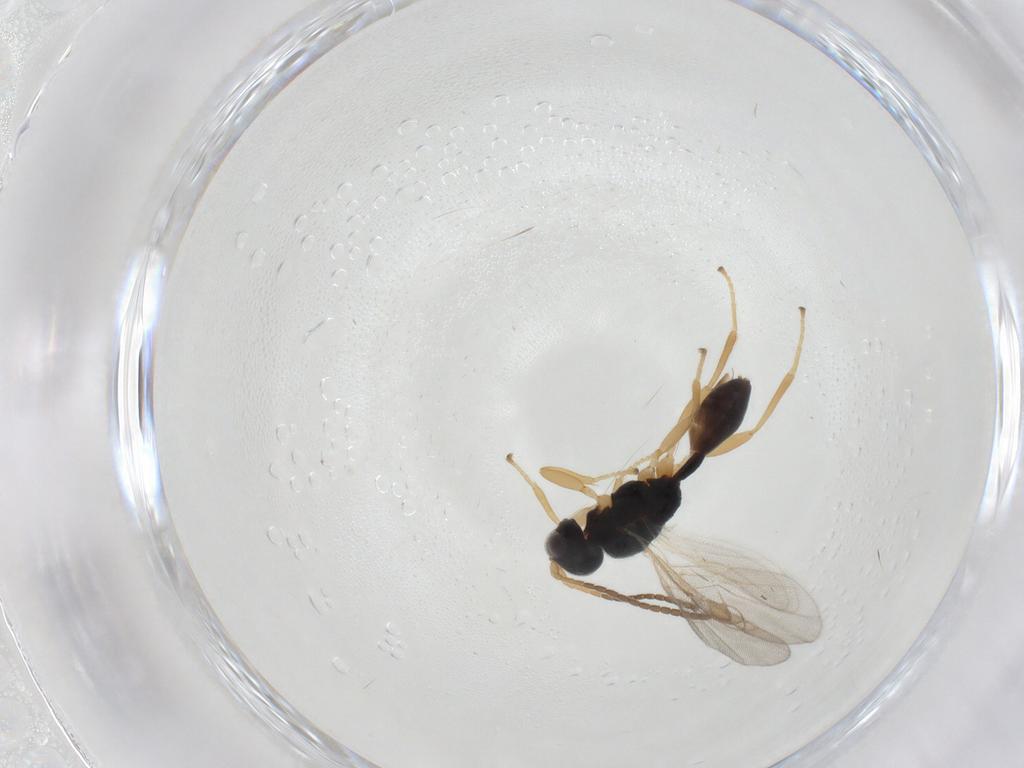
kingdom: Animalia
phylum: Arthropoda
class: Insecta
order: Hymenoptera
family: Braconidae
